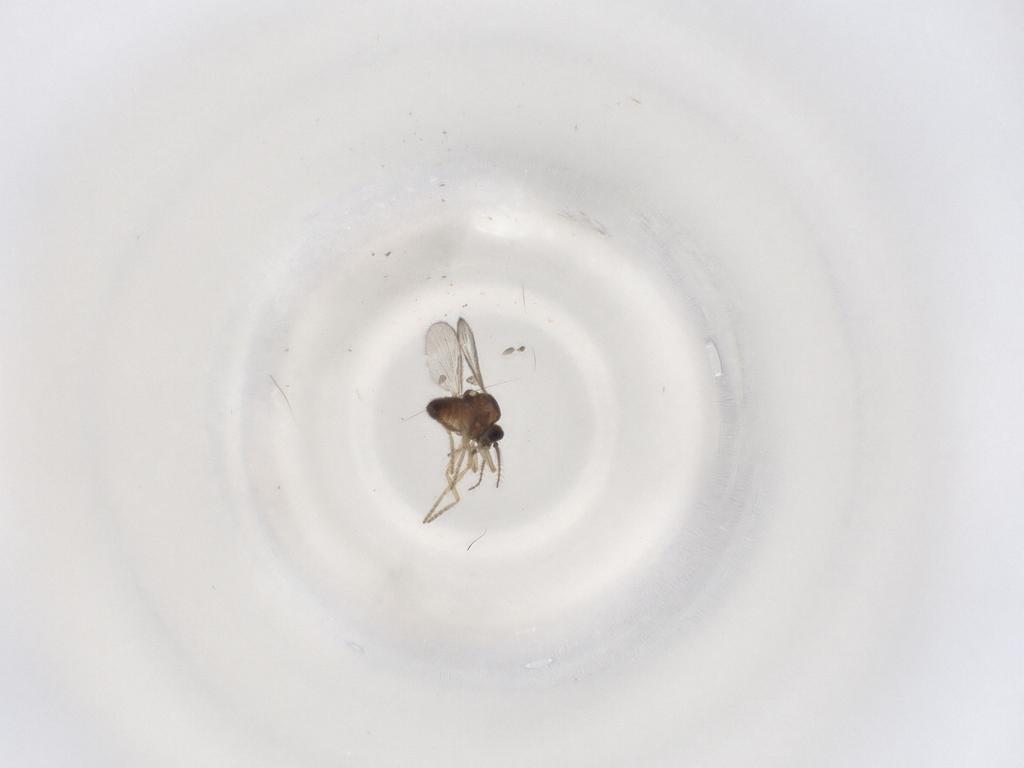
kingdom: Animalia
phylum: Arthropoda
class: Insecta
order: Diptera
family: Ceratopogonidae
